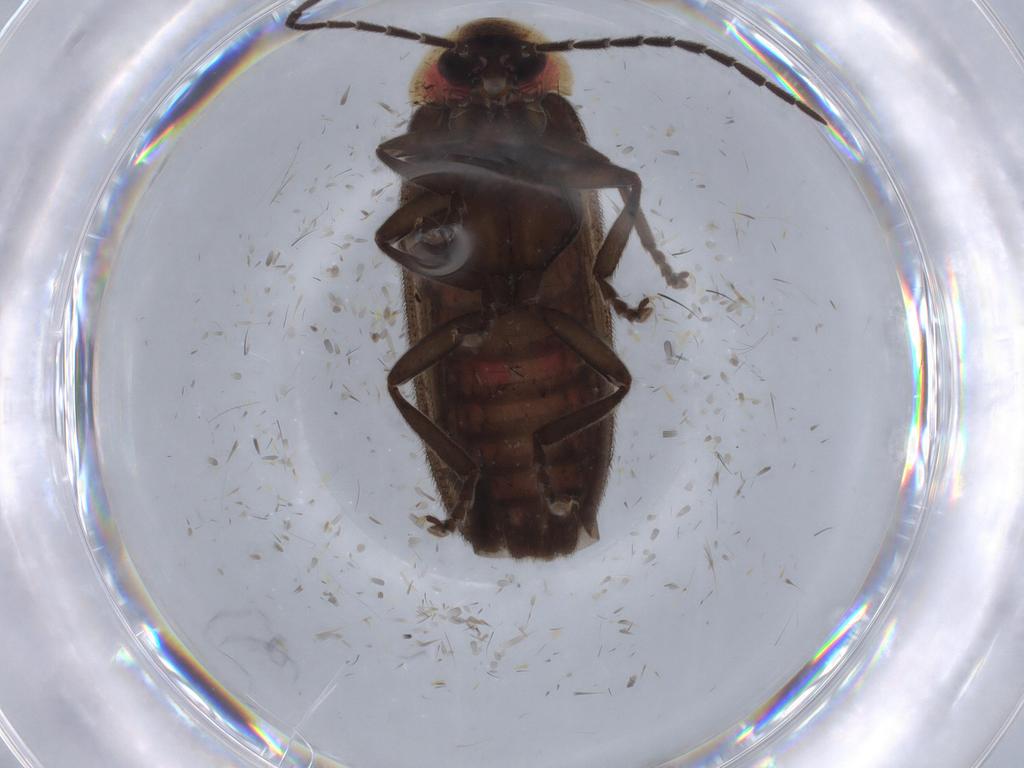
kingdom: Animalia
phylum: Arthropoda
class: Insecta
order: Coleoptera
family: Lampyridae
